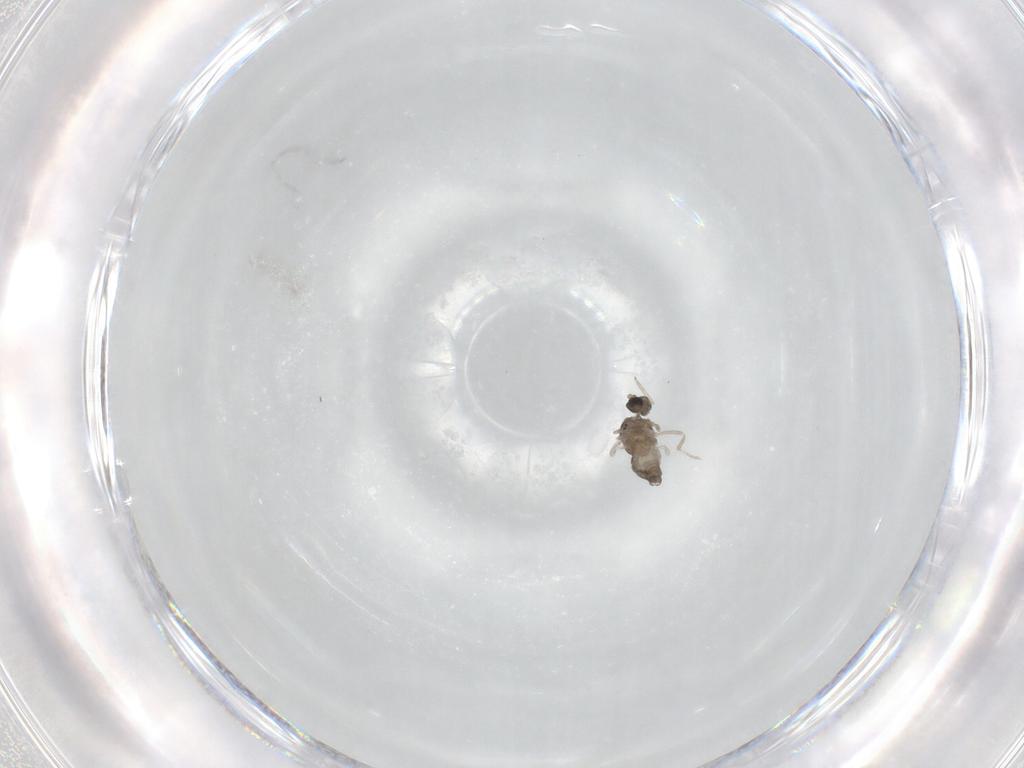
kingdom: Animalia
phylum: Arthropoda
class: Insecta
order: Diptera
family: Cecidomyiidae
